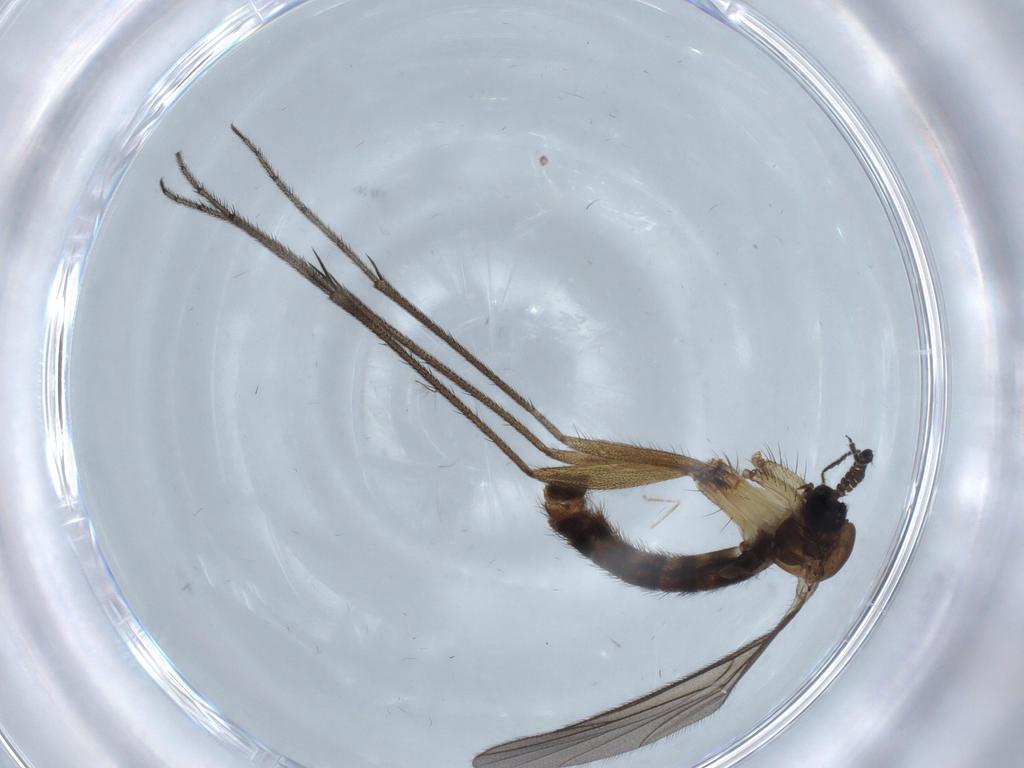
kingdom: Animalia
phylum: Arthropoda
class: Insecta
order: Diptera
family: Ditomyiidae
